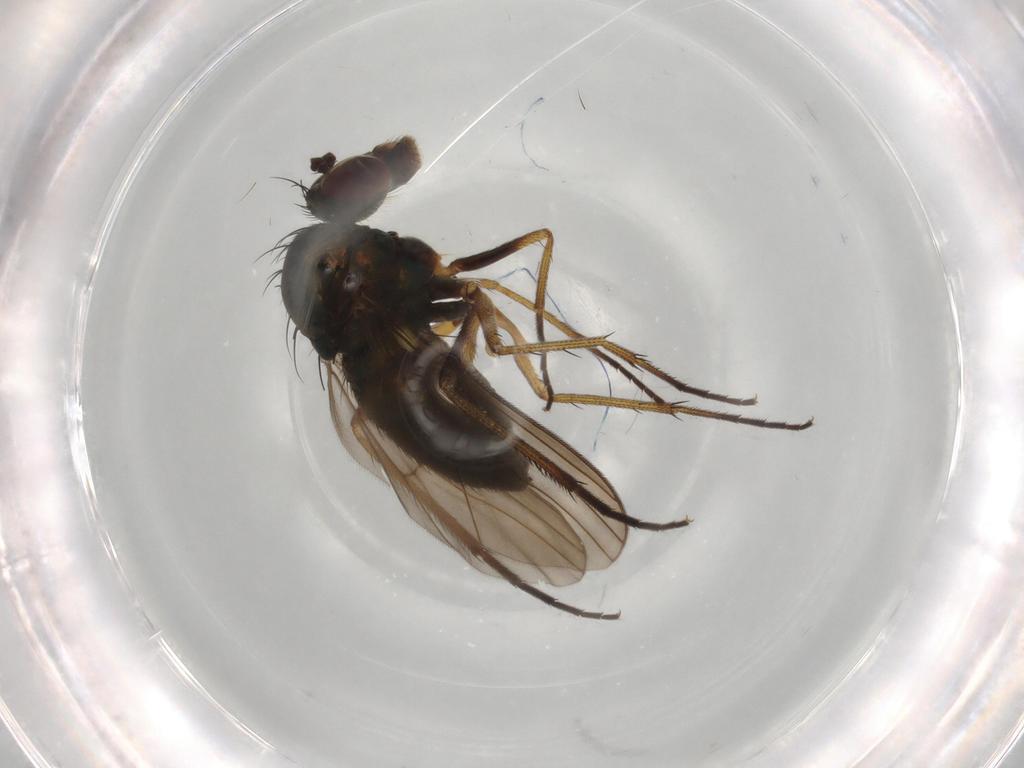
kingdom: Animalia
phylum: Arthropoda
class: Insecta
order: Diptera
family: Dolichopodidae
